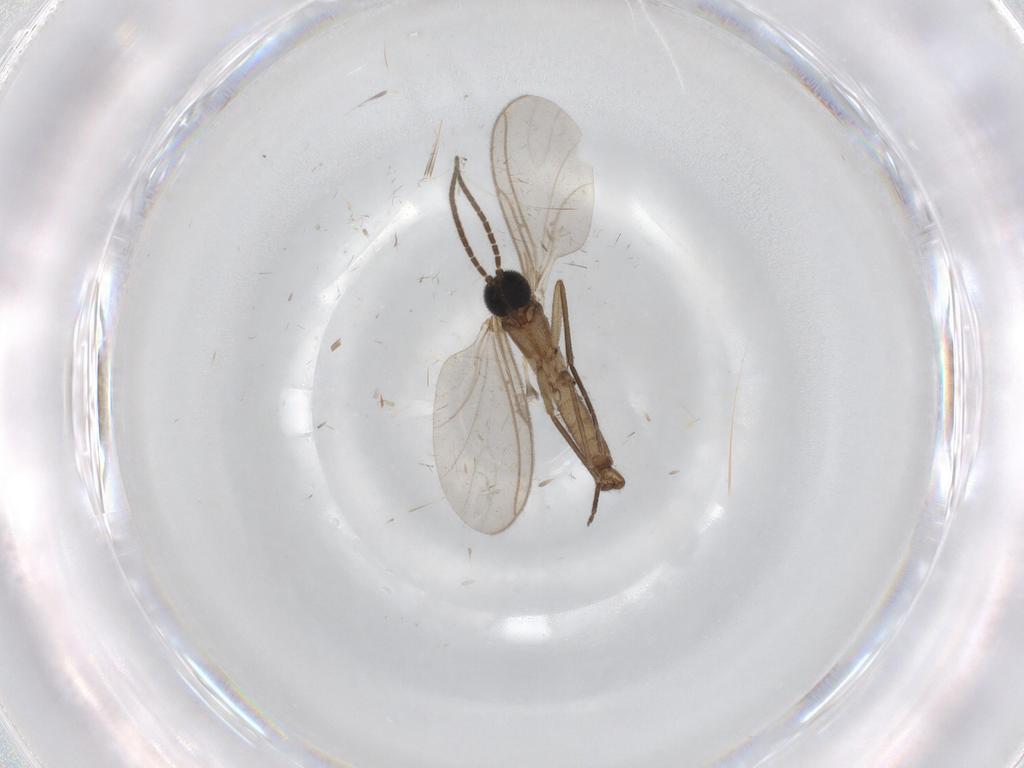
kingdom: Animalia
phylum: Arthropoda
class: Insecta
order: Diptera
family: Sciaridae
